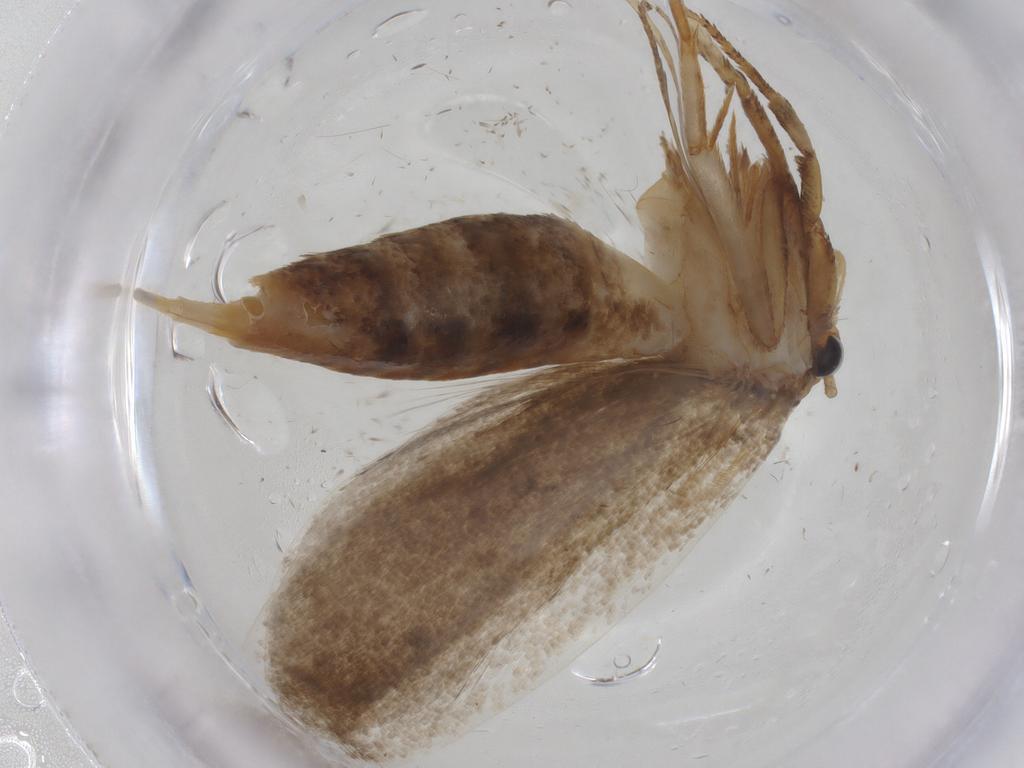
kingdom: Animalia
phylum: Arthropoda
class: Insecta
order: Lepidoptera
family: Oecophoridae
